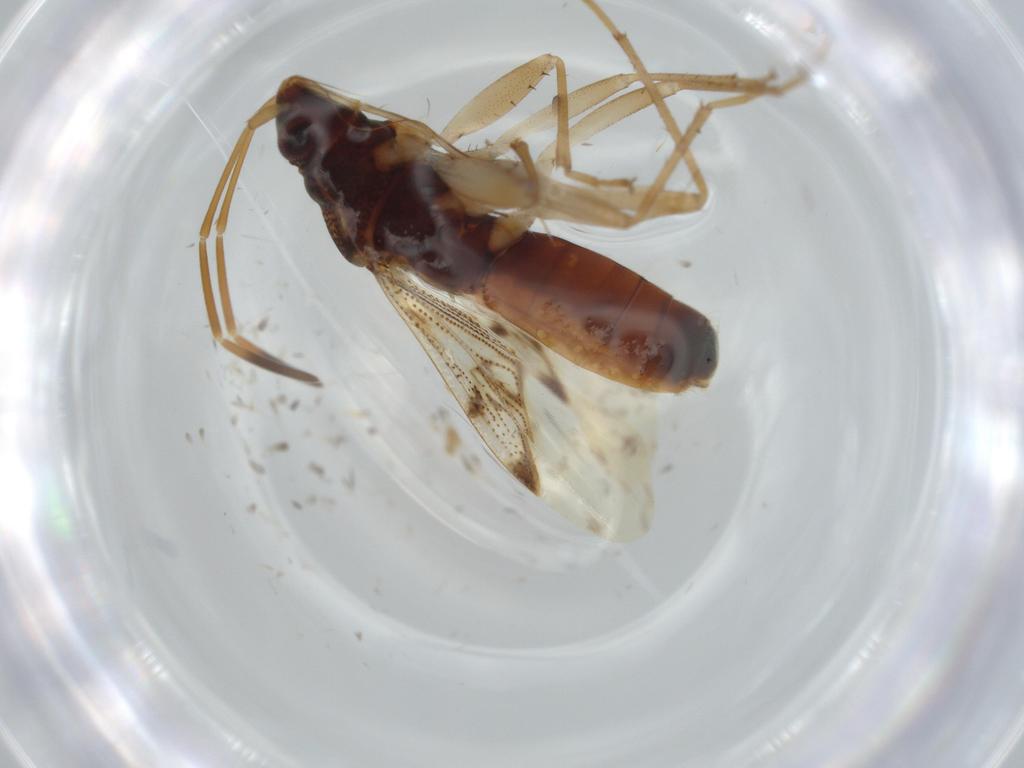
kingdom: Animalia
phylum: Arthropoda
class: Insecta
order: Hemiptera
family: Rhyparochromidae
